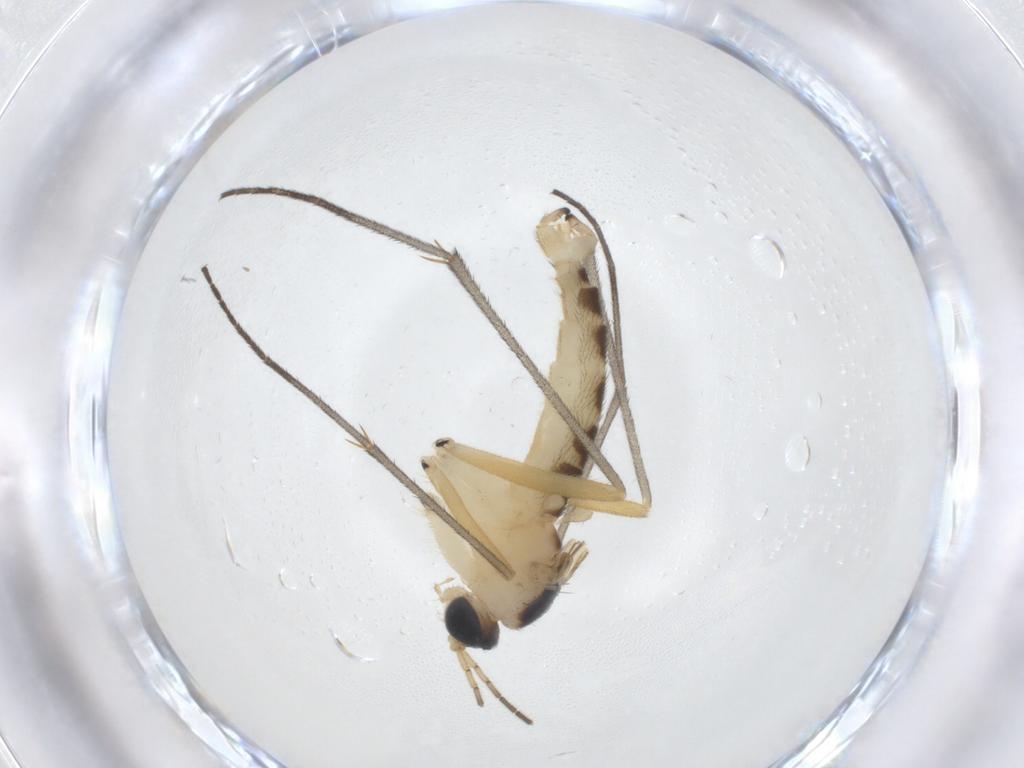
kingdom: Animalia
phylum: Arthropoda
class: Insecta
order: Diptera
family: Sciaridae
